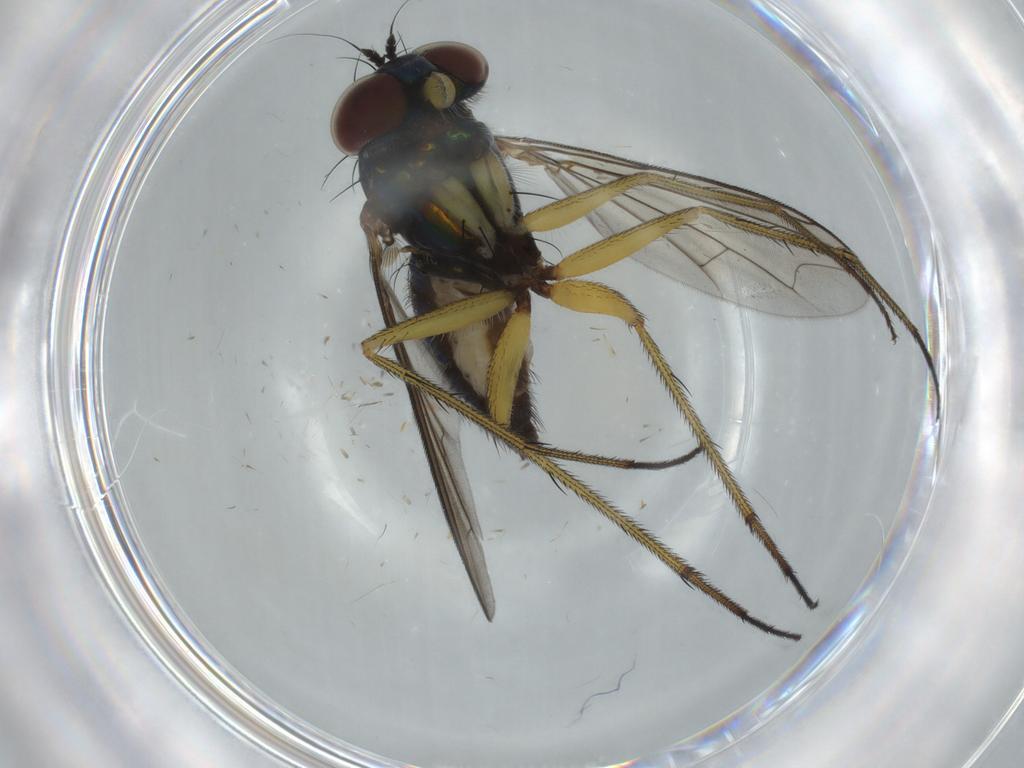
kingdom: Animalia
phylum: Arthropoda
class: Insecta
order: Diptera
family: Dolichopodidae
